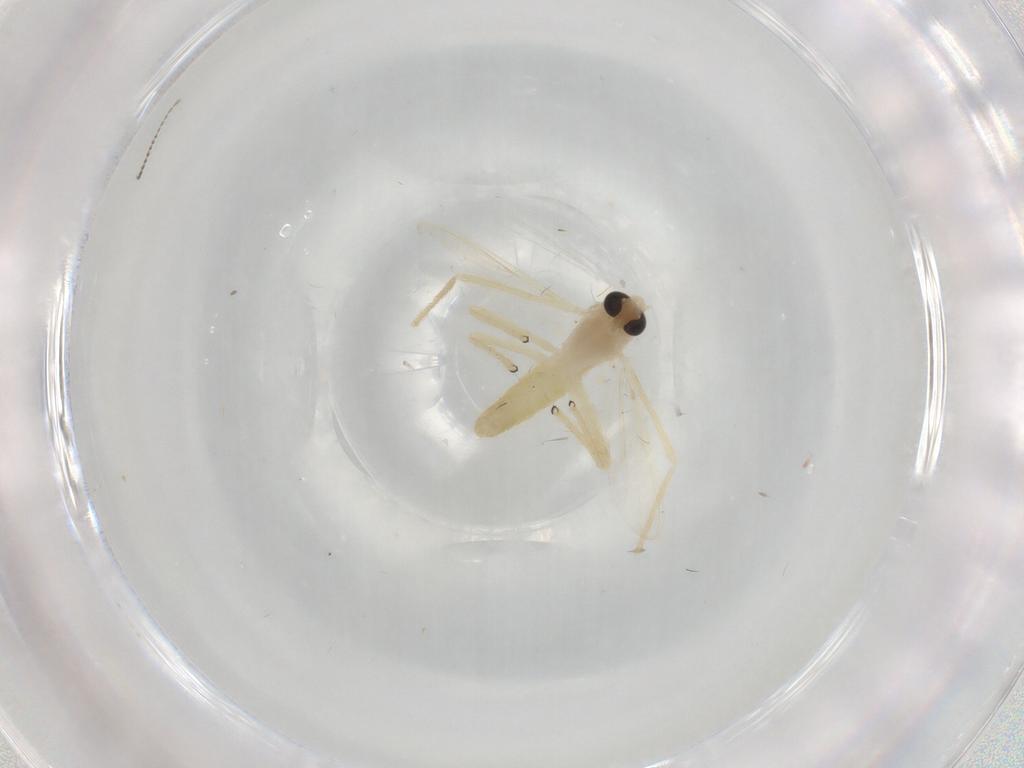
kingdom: Animalia
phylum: Arthropoda
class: Insecta
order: Diptera
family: Chironomidae
